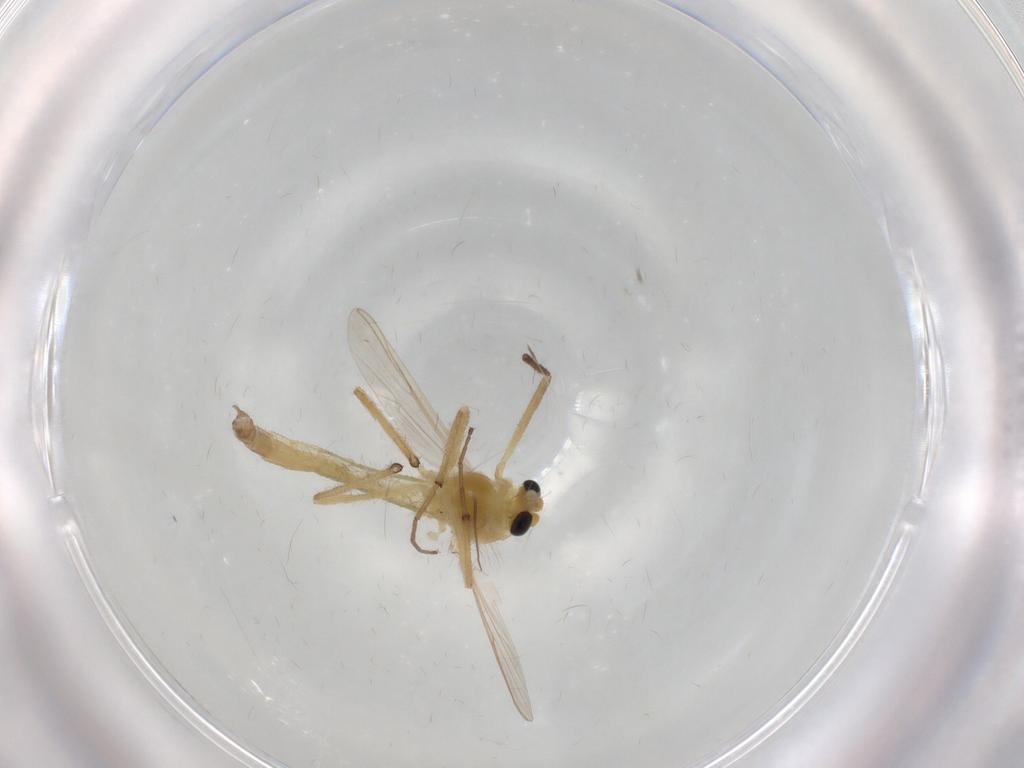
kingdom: Animalia
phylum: Arthropoda
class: Insecta
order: Diptera
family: Chironomidae
